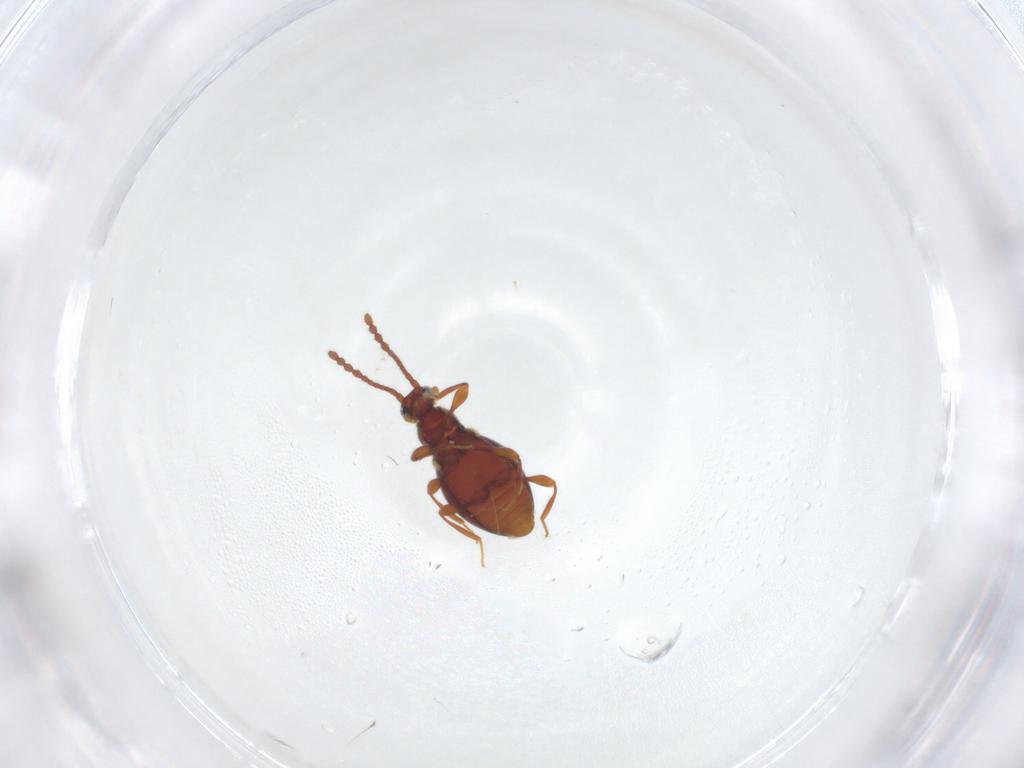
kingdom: Animalia
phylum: Arthropoda
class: Insecta
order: Coleoptera
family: Staphylinidae
